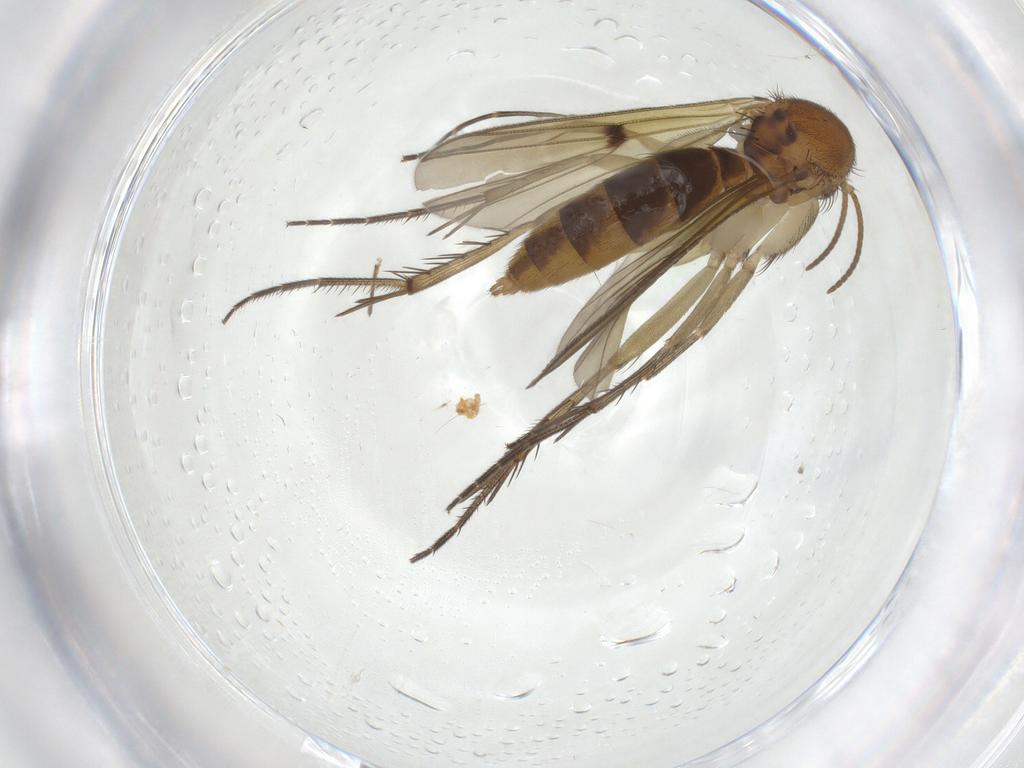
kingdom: Animalia
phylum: Arthropoda
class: Insecta
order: Diptera
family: Mycetophilidae
